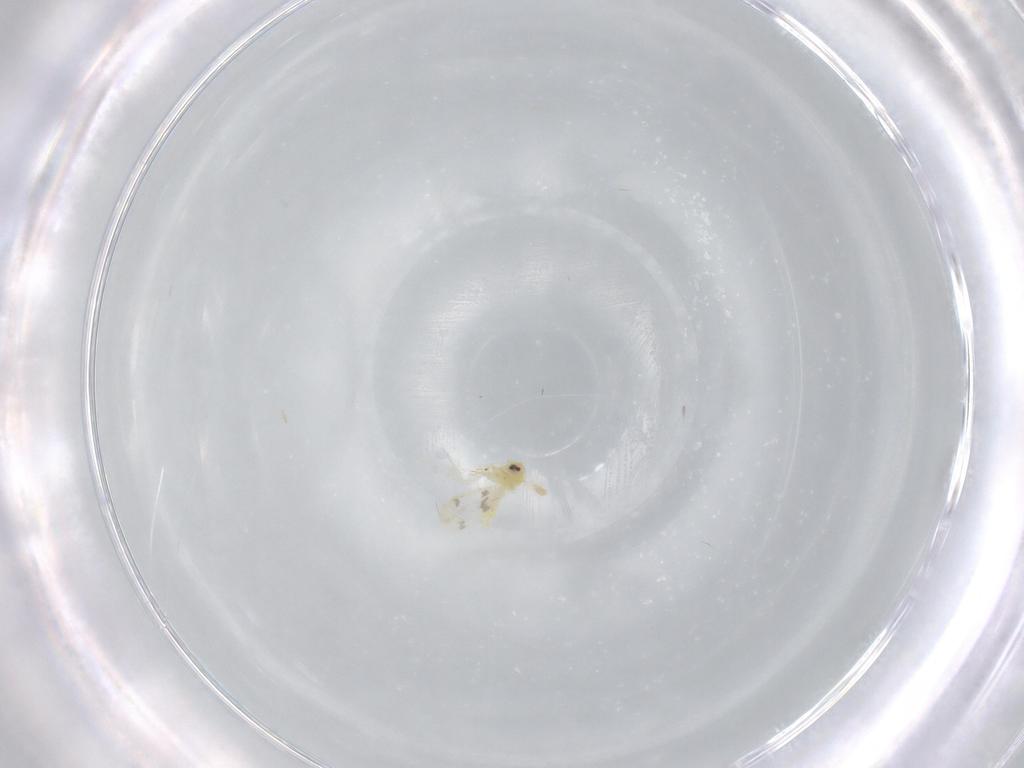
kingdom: Animalia
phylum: Arthropoda
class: Insecta
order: Hemiptera
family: Aleyrodidae
